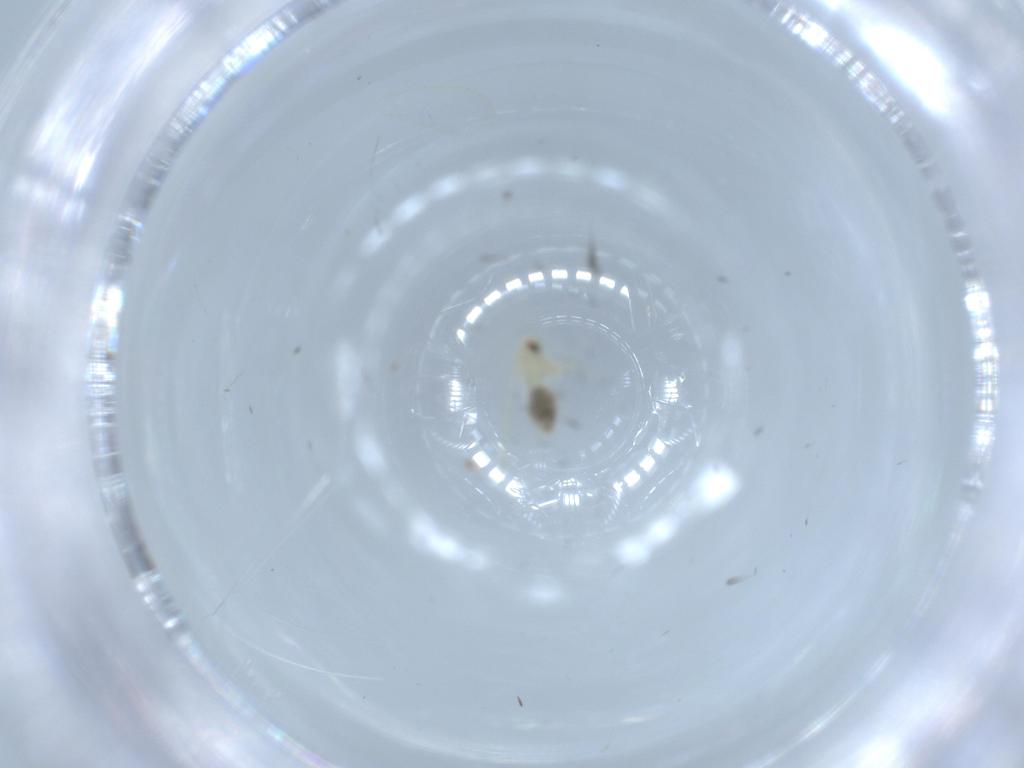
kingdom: Animalia
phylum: Arthropoda
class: Insecta
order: Hemiptera
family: Aleyrodidae
